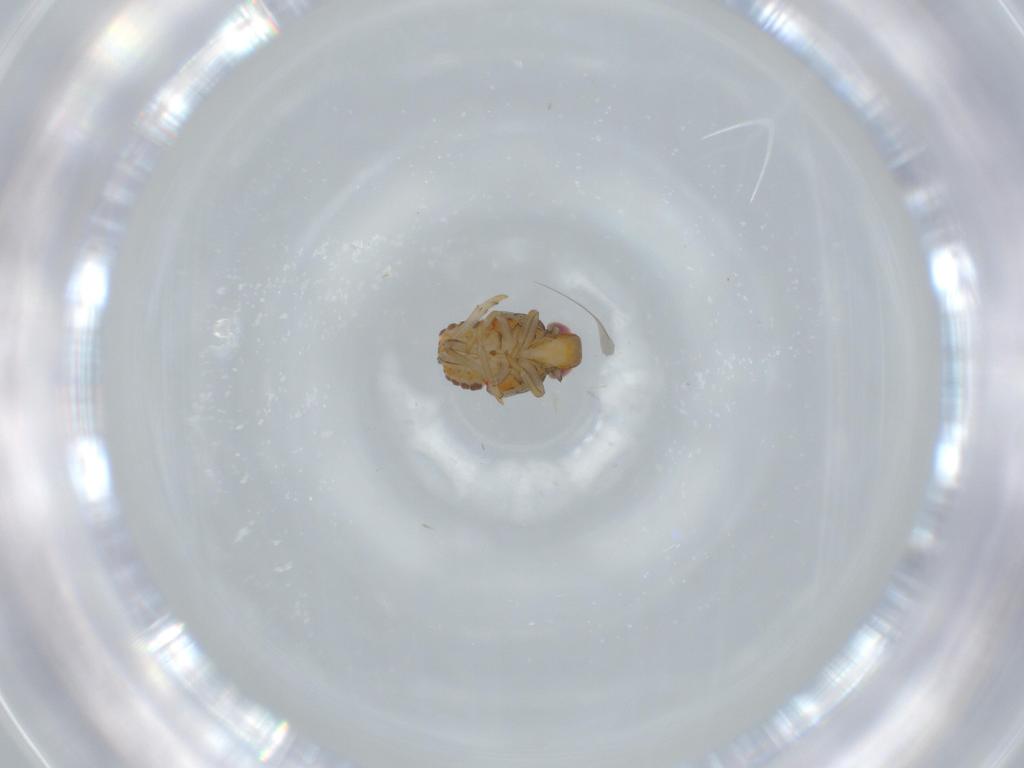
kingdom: Animalia
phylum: Arthropoda
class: Insecta
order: Hemiptera
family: Issidae
